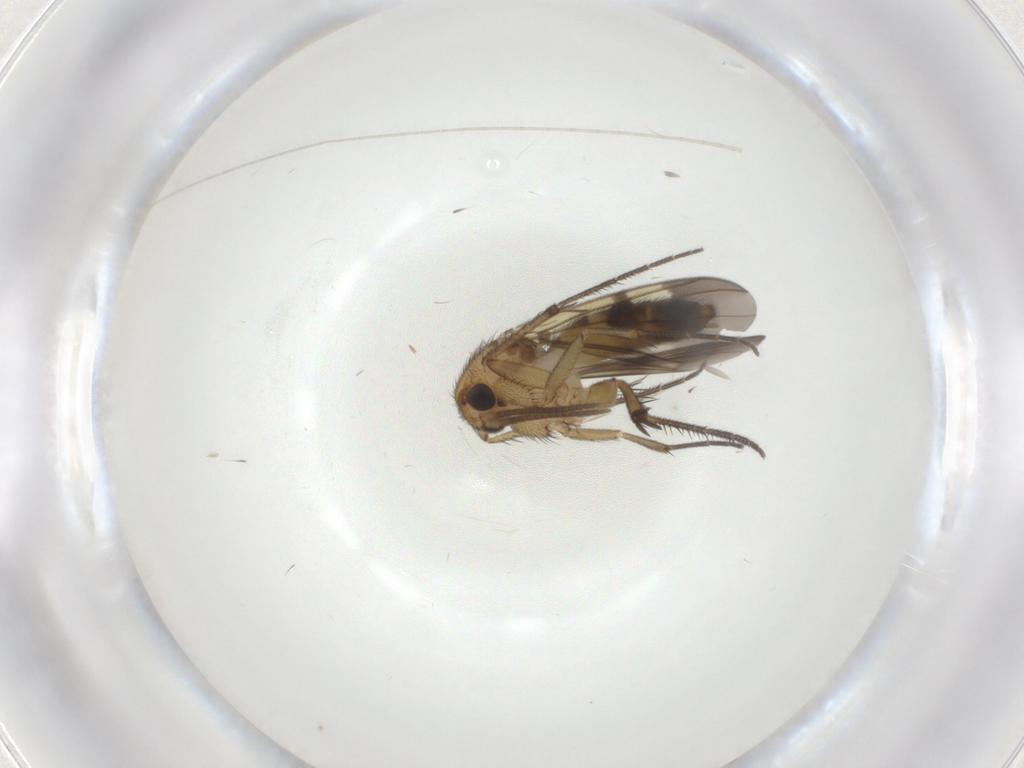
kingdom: Animalia
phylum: Arthropoda
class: Insecta
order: Diptera
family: Mycetophilidae
